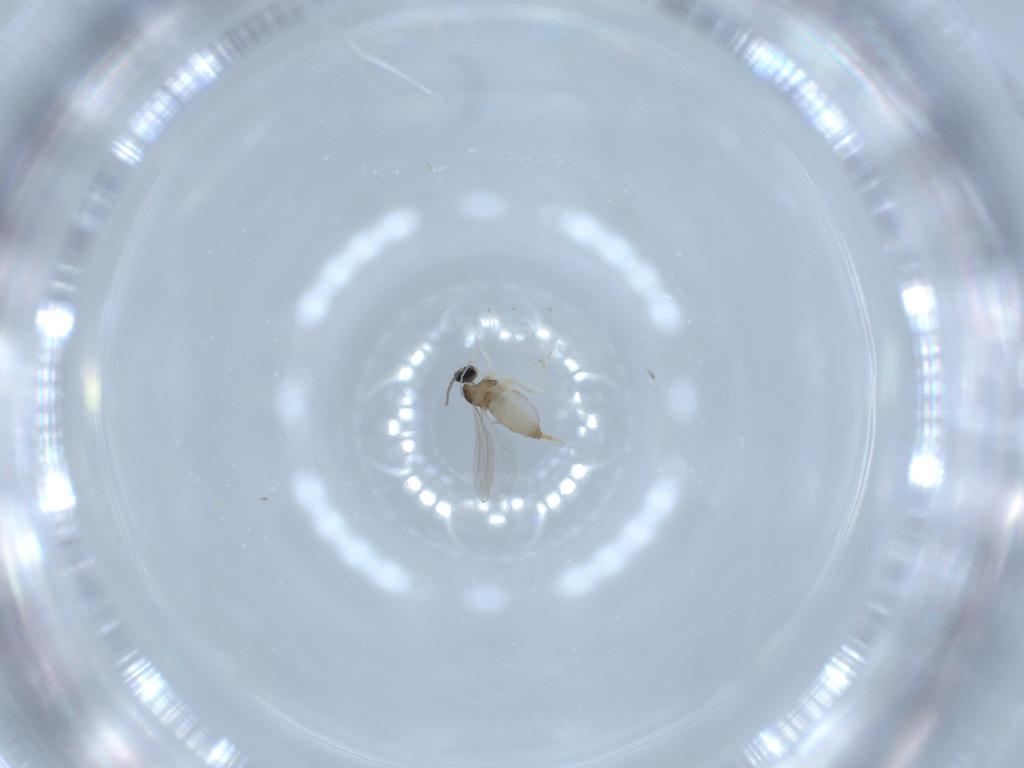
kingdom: Animalia
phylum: Arthropoda
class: Insecta
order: Diptera
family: Cecidomyiidae
